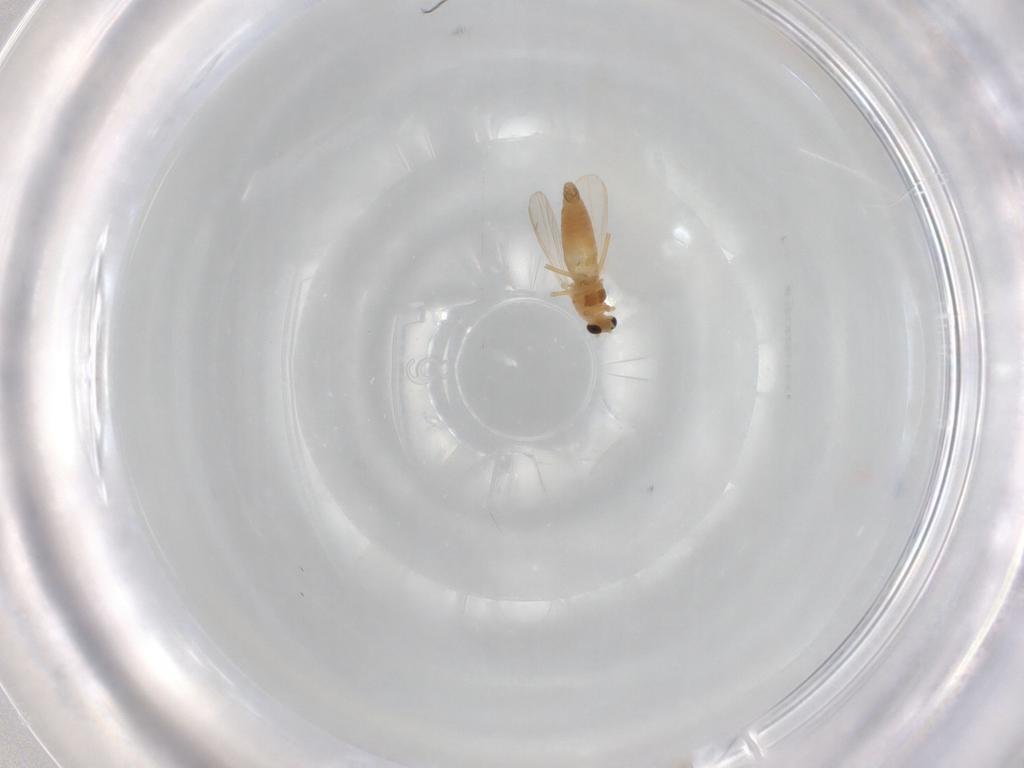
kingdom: Animalia
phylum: Arthropoda
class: Insecta
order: Diptera
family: Chironomidae
